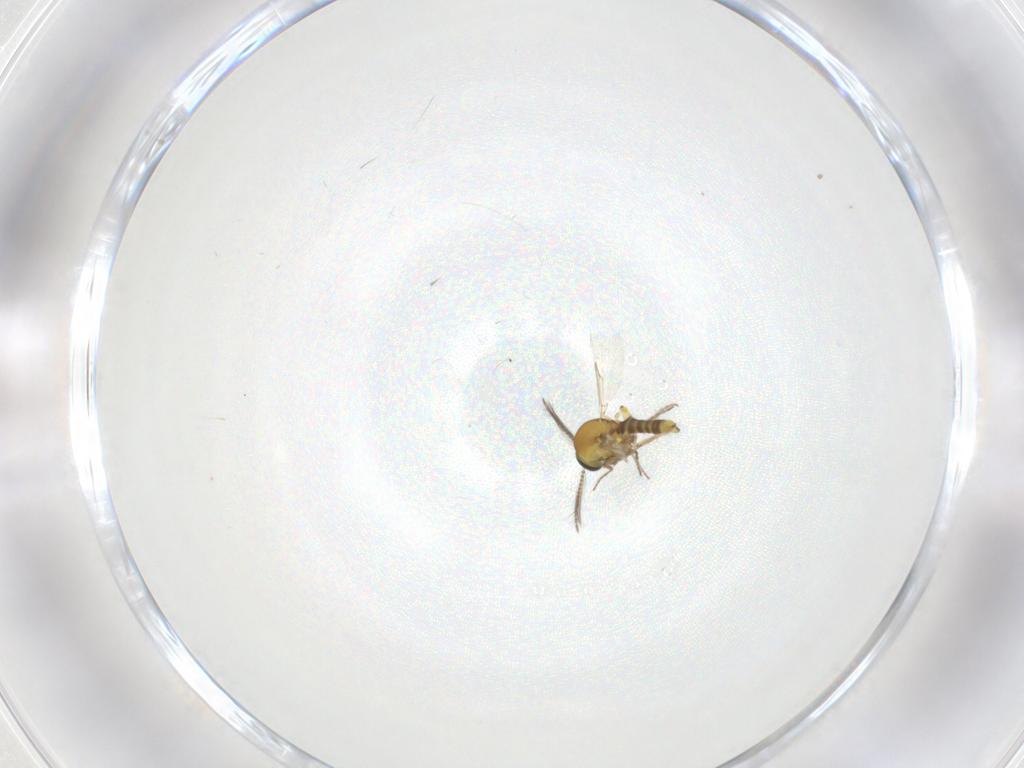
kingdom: Animalia
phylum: Arthropoda
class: Insecta
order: Diptera
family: Ceratopogonidae
